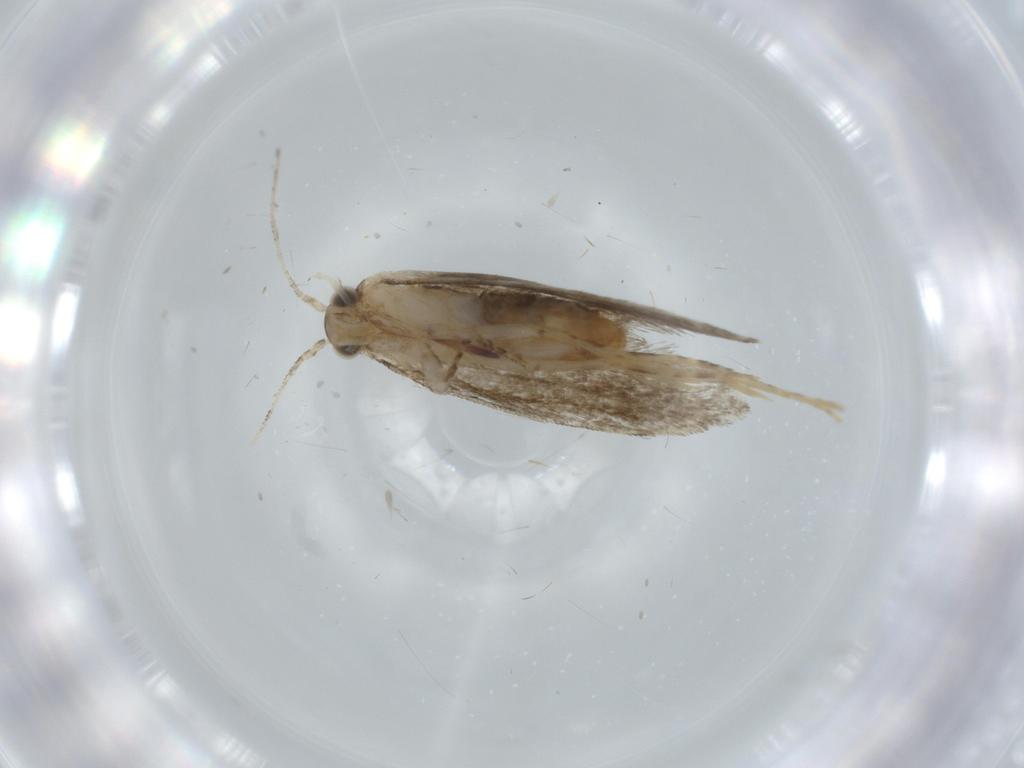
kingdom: Animalia
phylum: Arthropoda
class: Insecta
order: Lepidoptera
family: Tineidae
